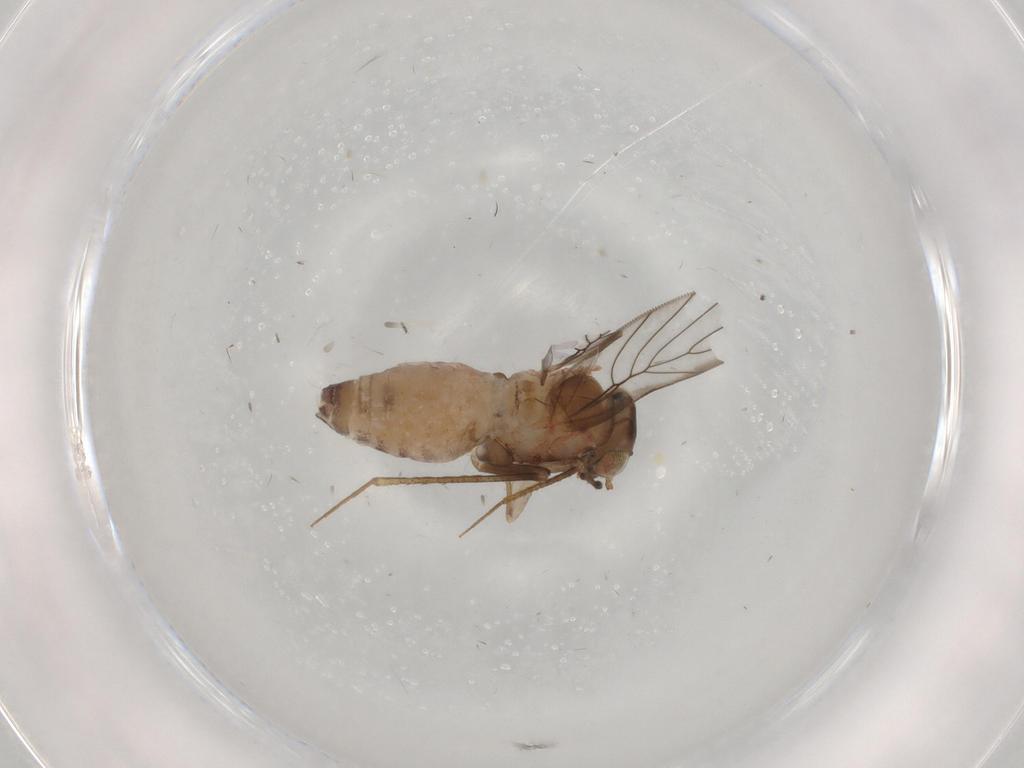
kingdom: Animalia
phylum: Arthropoda
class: Insecta
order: Psocodea
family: Lepidopsocidae
